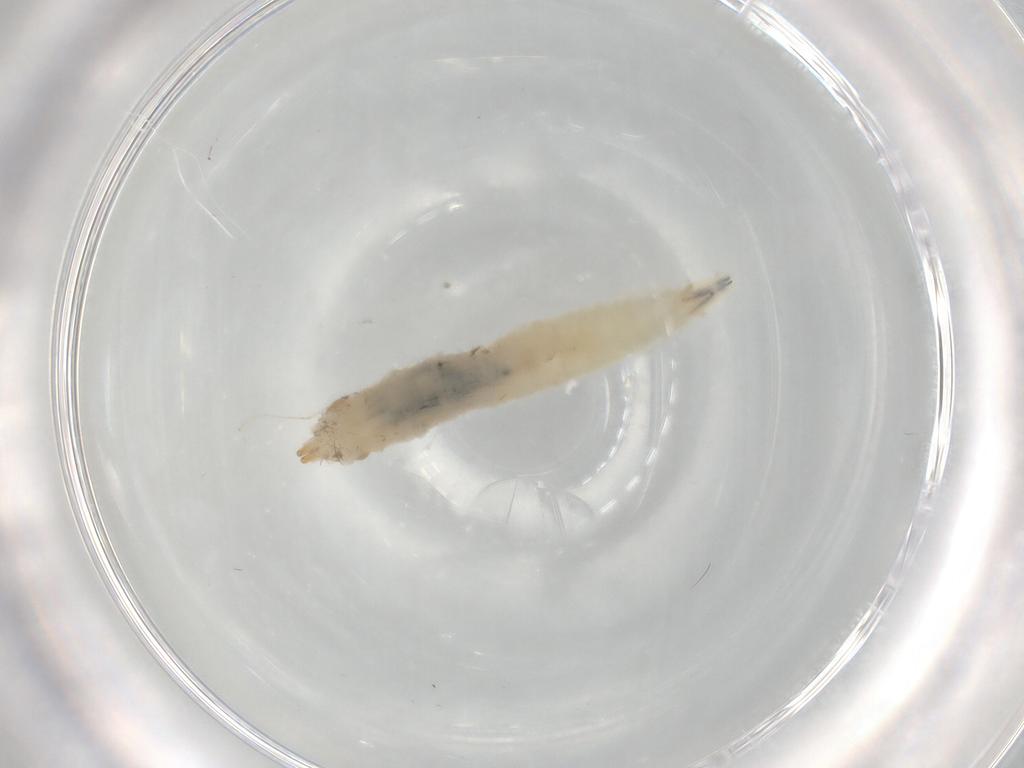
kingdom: Animalia
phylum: Arthropoda
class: Insecta
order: Diptera
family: Drosophilidae
